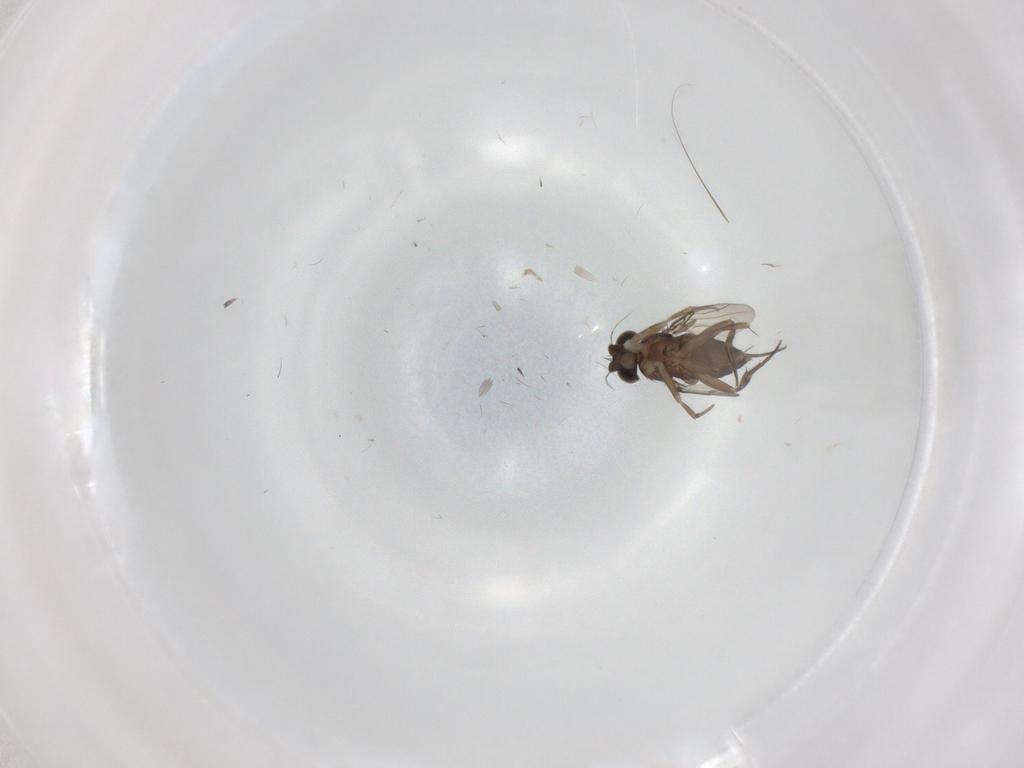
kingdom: Animalia
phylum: Arthropoda
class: Insecta
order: Diptera
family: Phoridae
